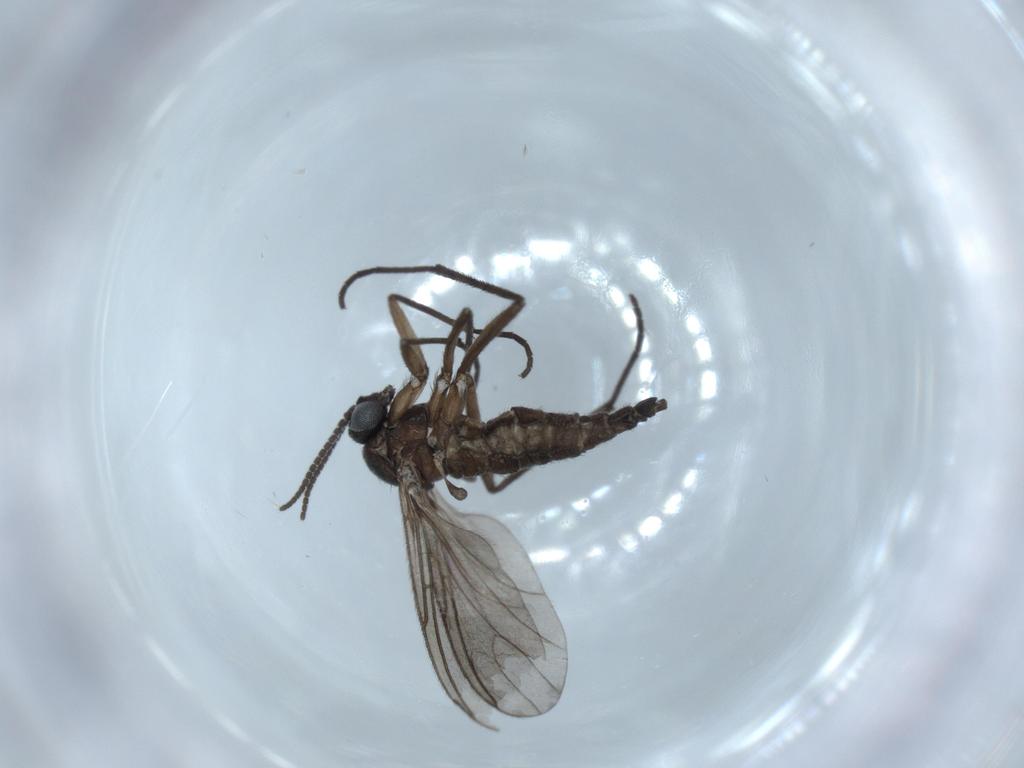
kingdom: Animalia
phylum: Arthropoda
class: Insecta
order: Diptera
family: Sciaridae
